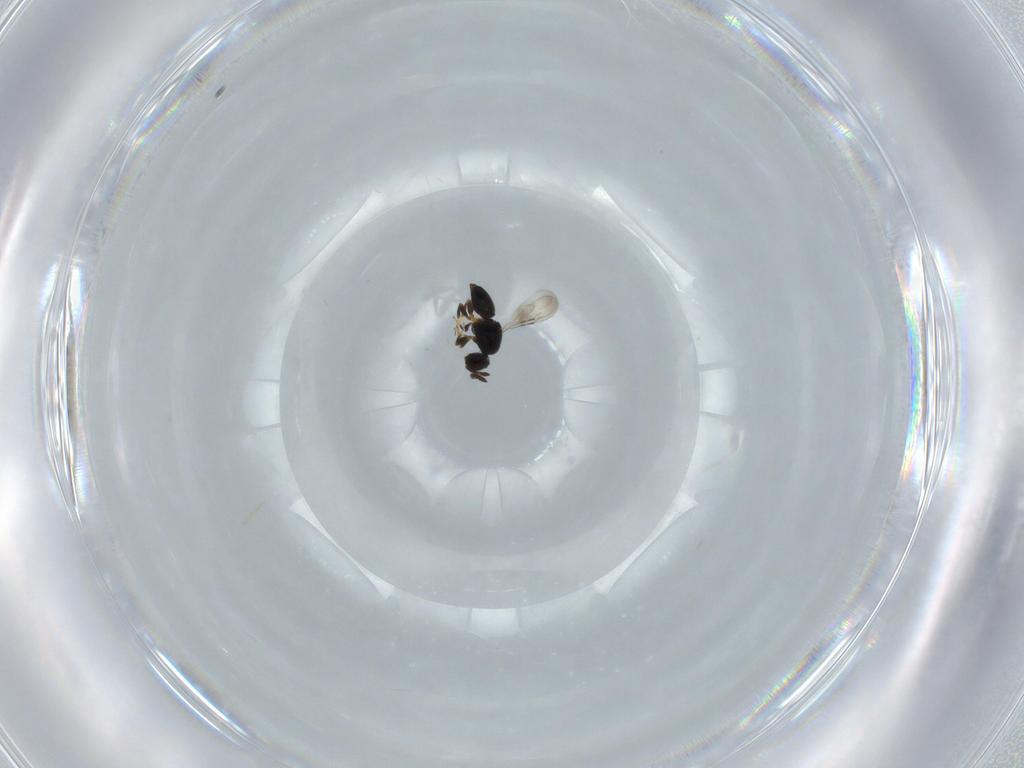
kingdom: Animalia
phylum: Arthropoda
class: Insecta
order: Hymenoptera
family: Diapriidae
